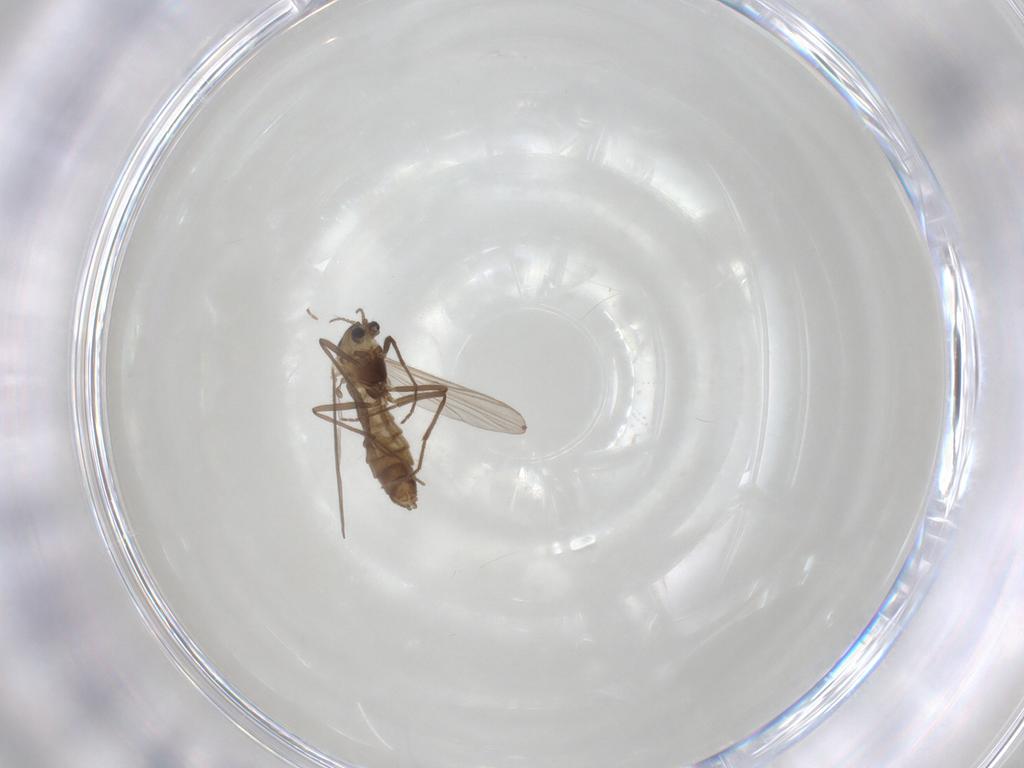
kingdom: Animalia
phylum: Arthropoda
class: Insecta
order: Diptera
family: Chironomidae
